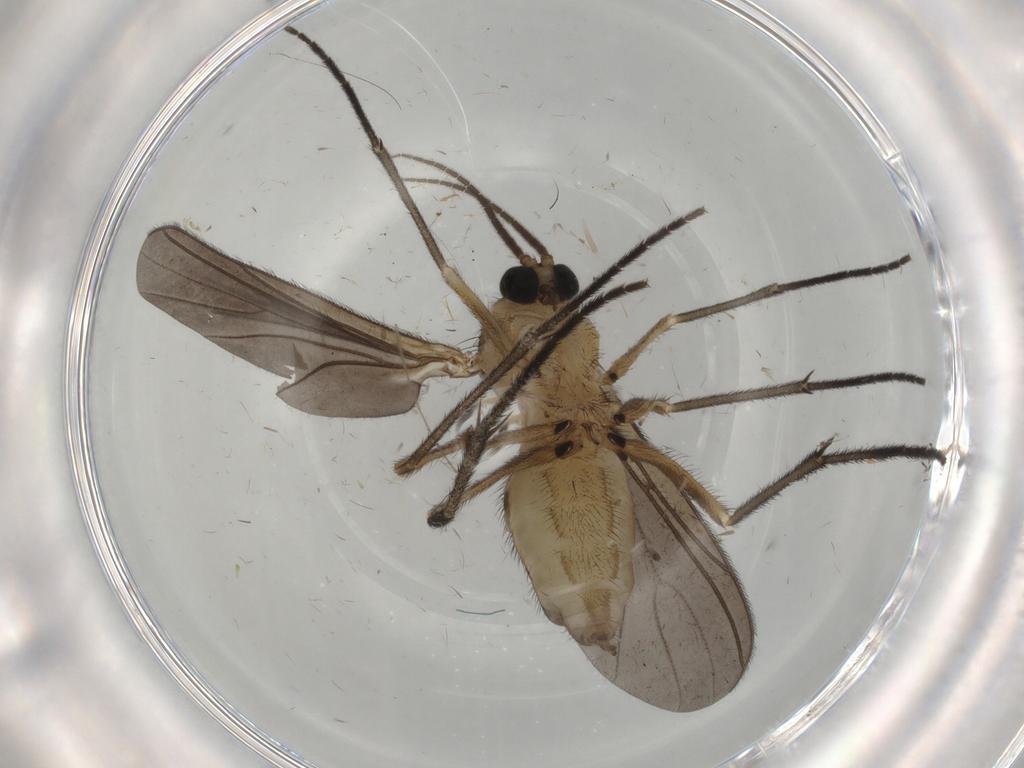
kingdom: Animalia
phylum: Arthropoda
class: Insecta
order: Diptera
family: Sciaridae
